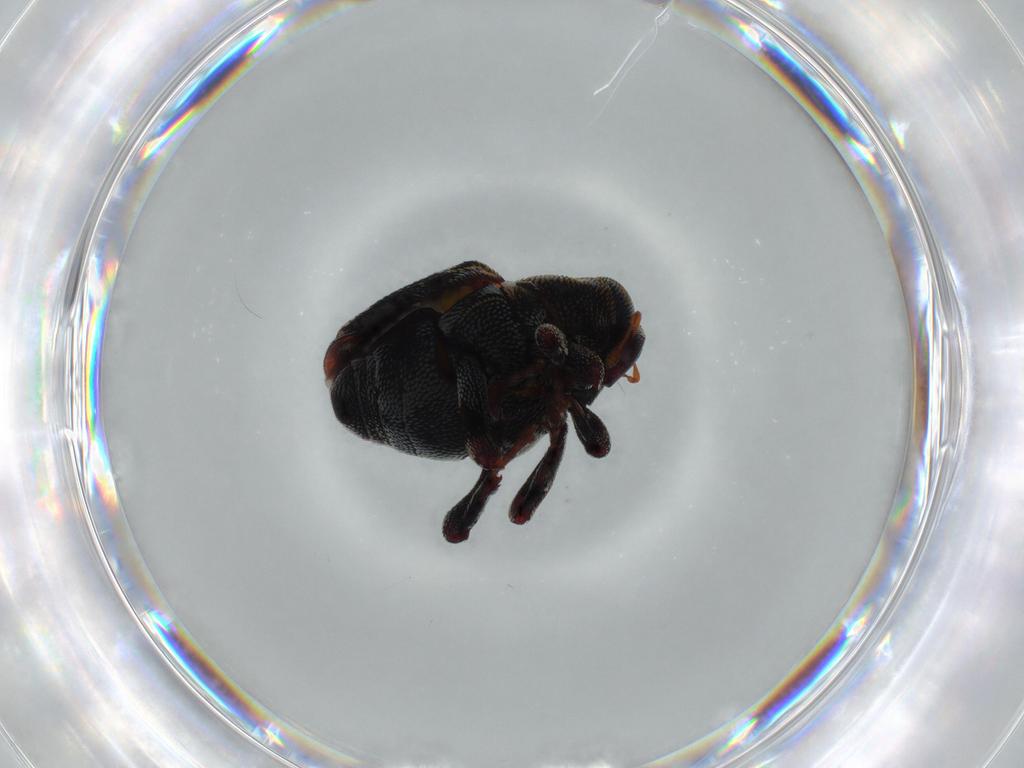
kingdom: Animalia
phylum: Arthropoda
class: Insecta
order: Coleoptera
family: Curculionidae
